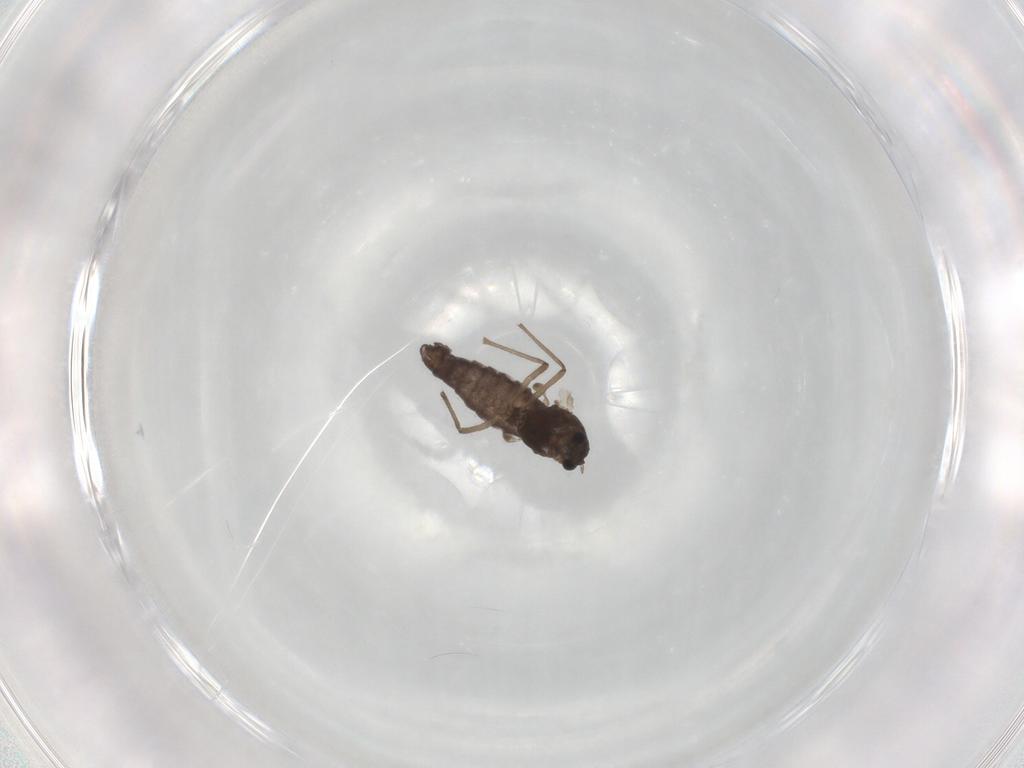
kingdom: Animalia
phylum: Arthropoda
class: Insecta
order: Diptera
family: Chironomidae
